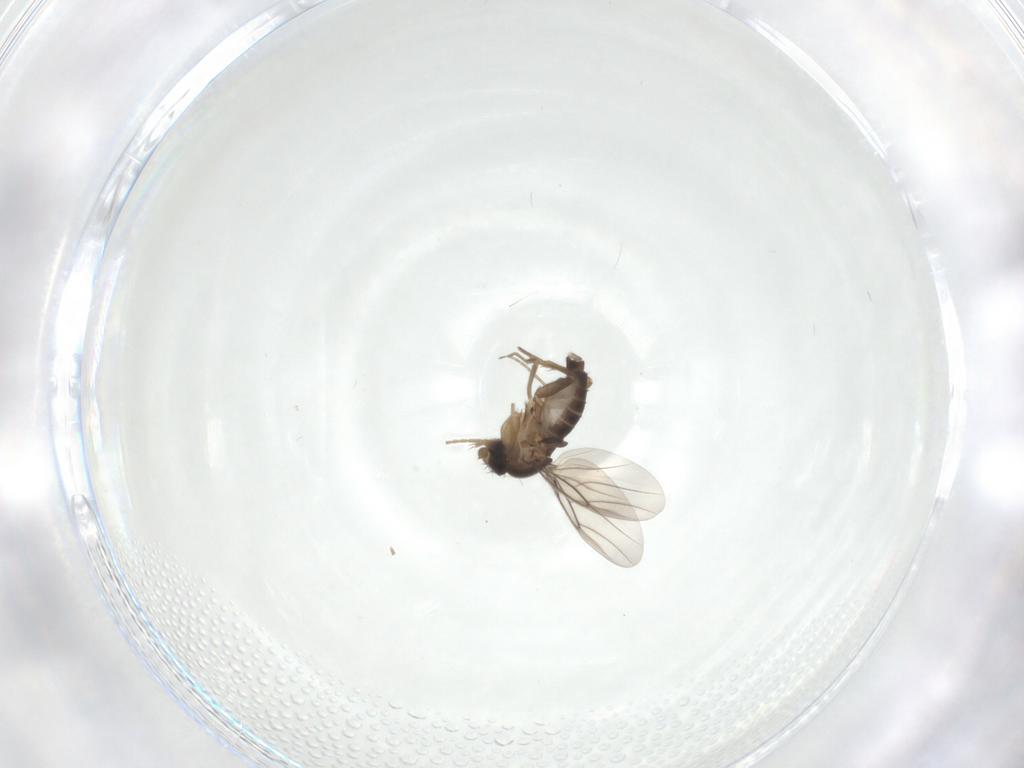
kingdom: Animalia
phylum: Arthropoda
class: Insecta
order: Diptera
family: Phoridae
